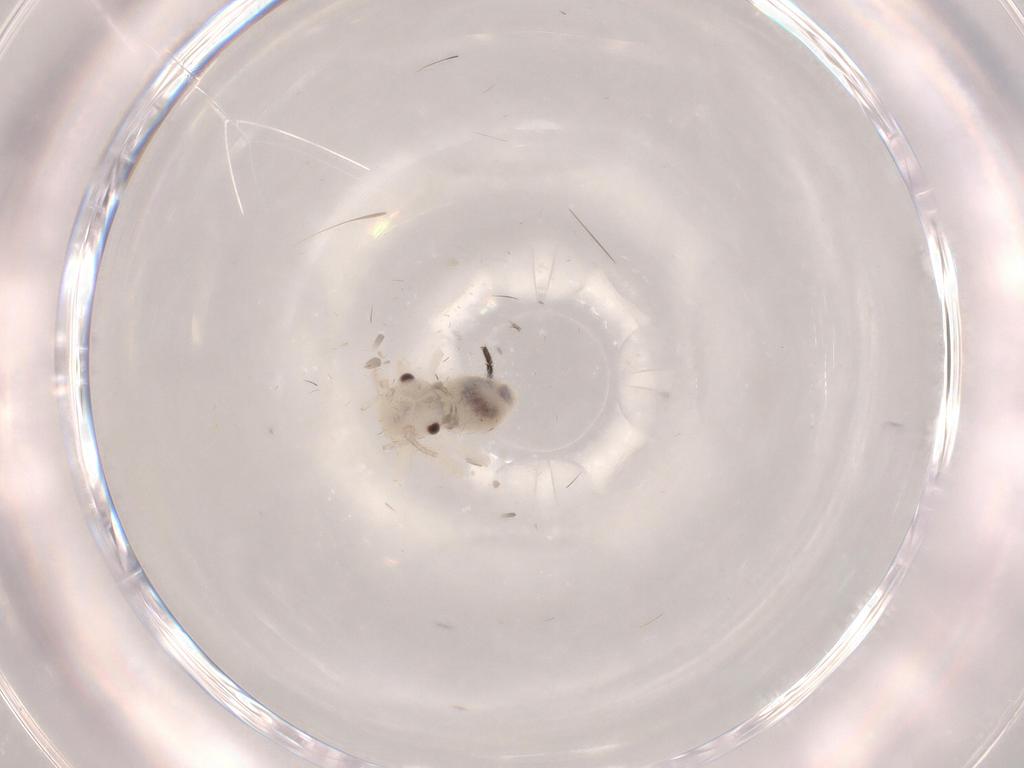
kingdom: Animalia
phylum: Arthropoda
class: Insecta
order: Psocodea
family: Amphipsocidae
